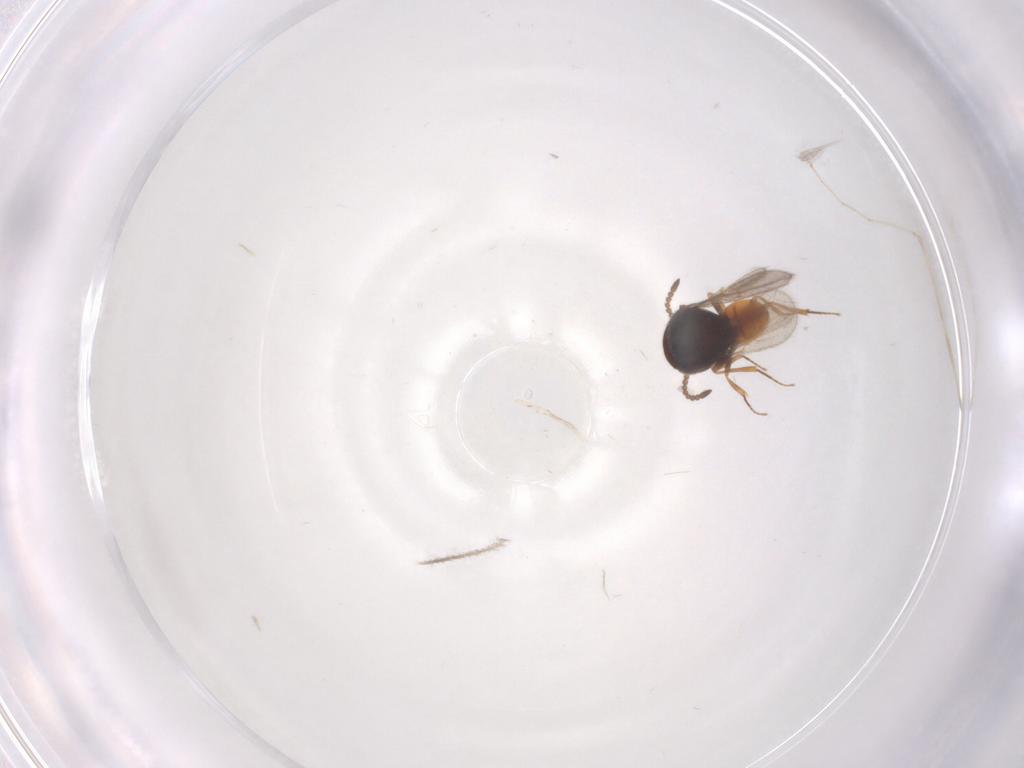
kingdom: Animalia
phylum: Arthropoda
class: Insecta
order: Hymenoptera
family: Scelionidae
